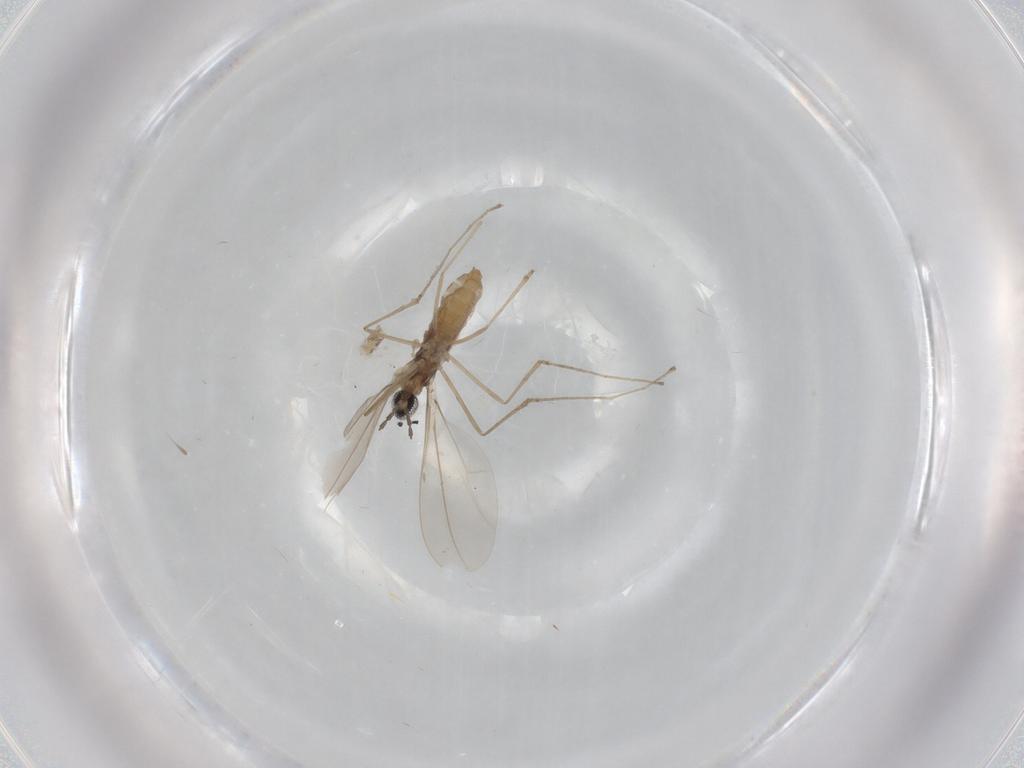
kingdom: Animalia
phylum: Arthropoda
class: Insecta
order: Diptera
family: Cecidomyiidae
